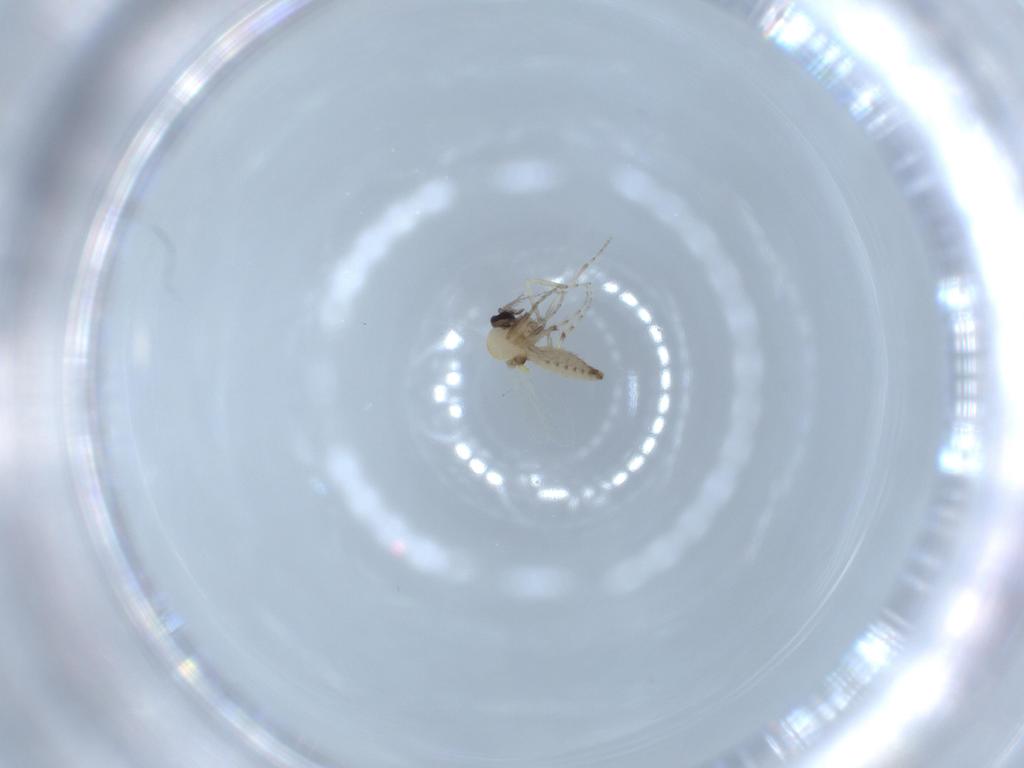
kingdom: Animalia
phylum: Arthropoda
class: Insecta
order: Diptera
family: Ceratopogonidae
